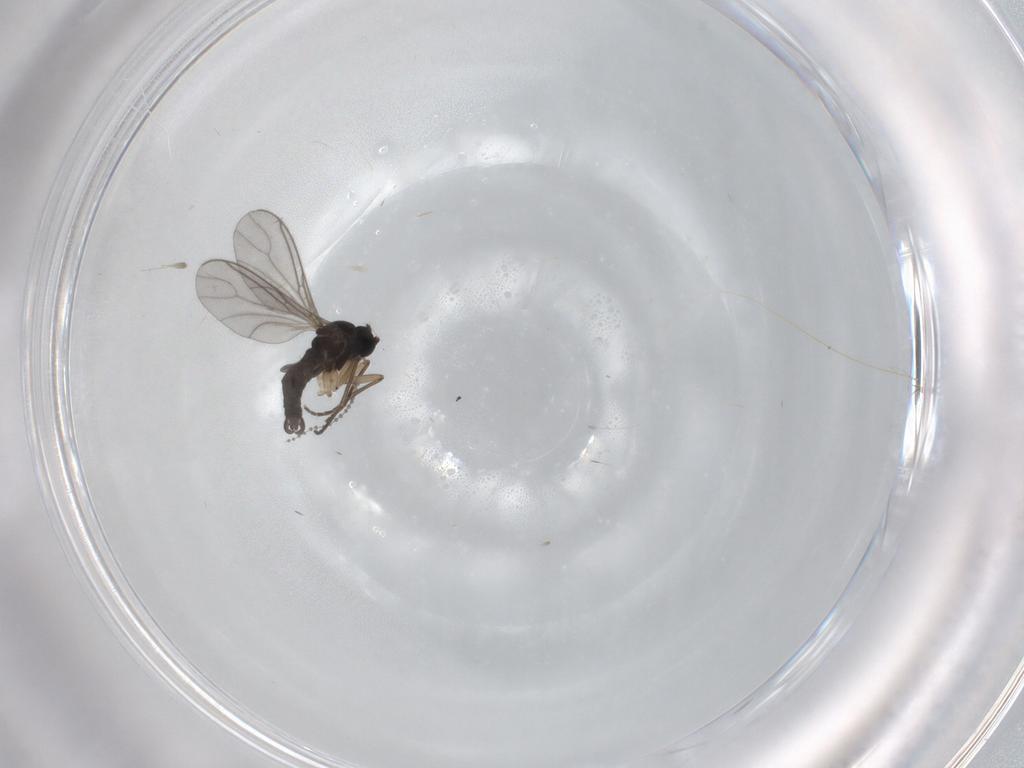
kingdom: Animalia
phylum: Arthropoda
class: Insecta
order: Diptera
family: Sciaridae
